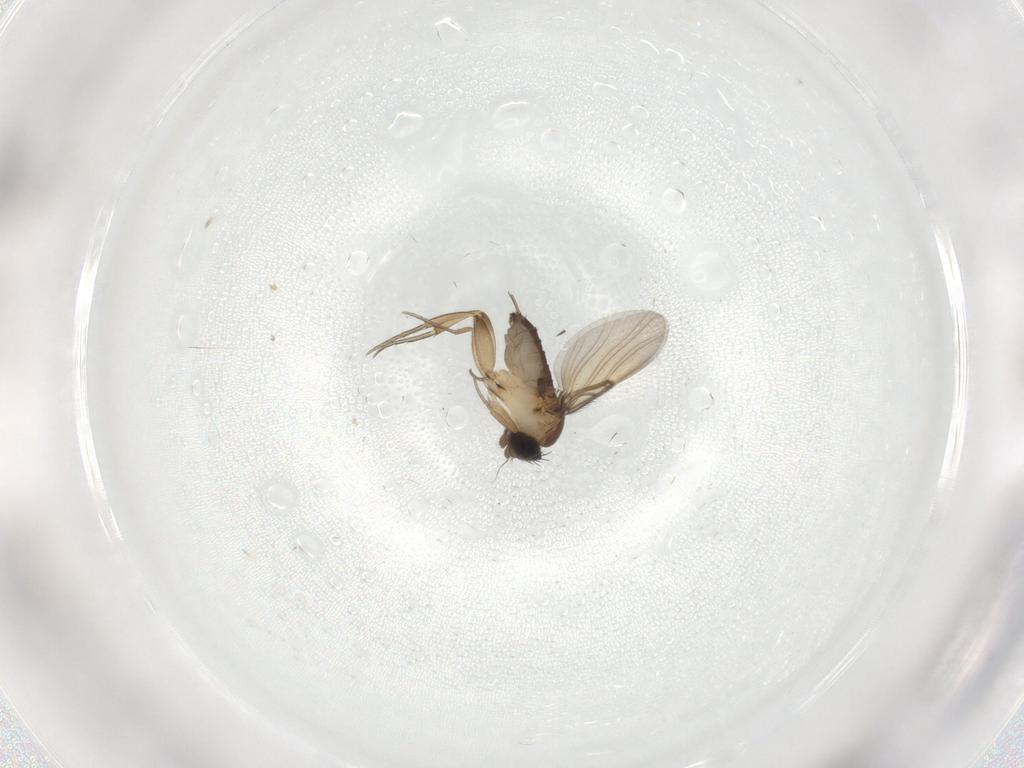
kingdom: Animalia
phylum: Arthropoda
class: Insecta
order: Diptera
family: Phoridae
